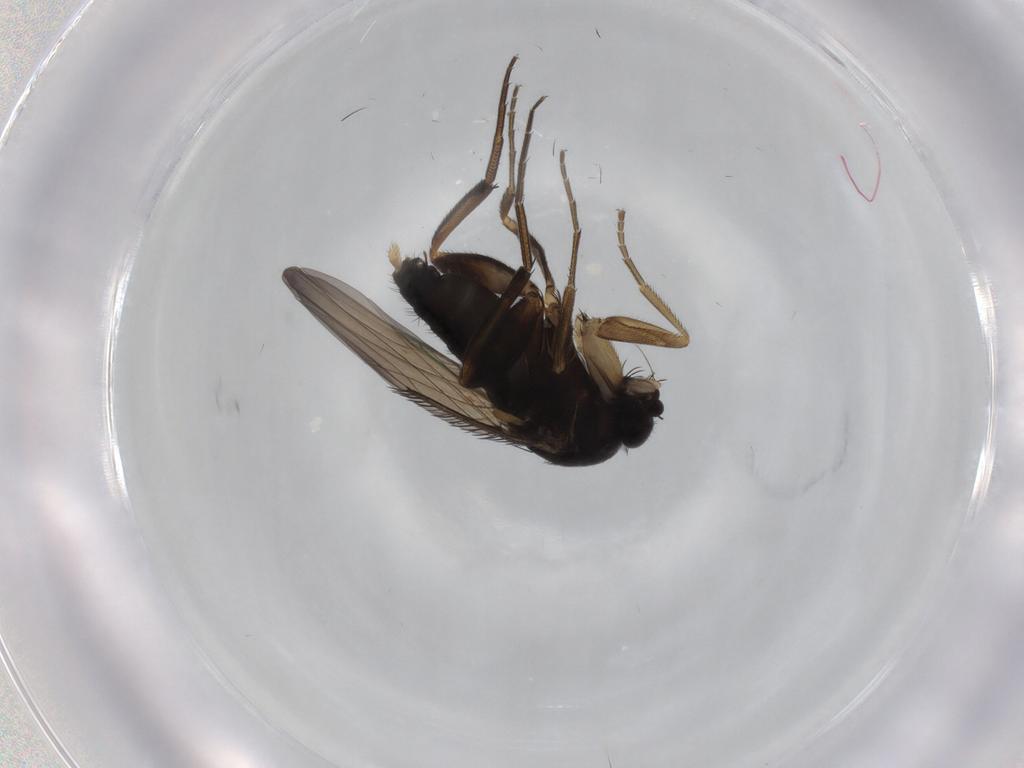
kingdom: Animalia
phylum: Arthropoda
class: Insecta
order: Diptera
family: Phoridae
